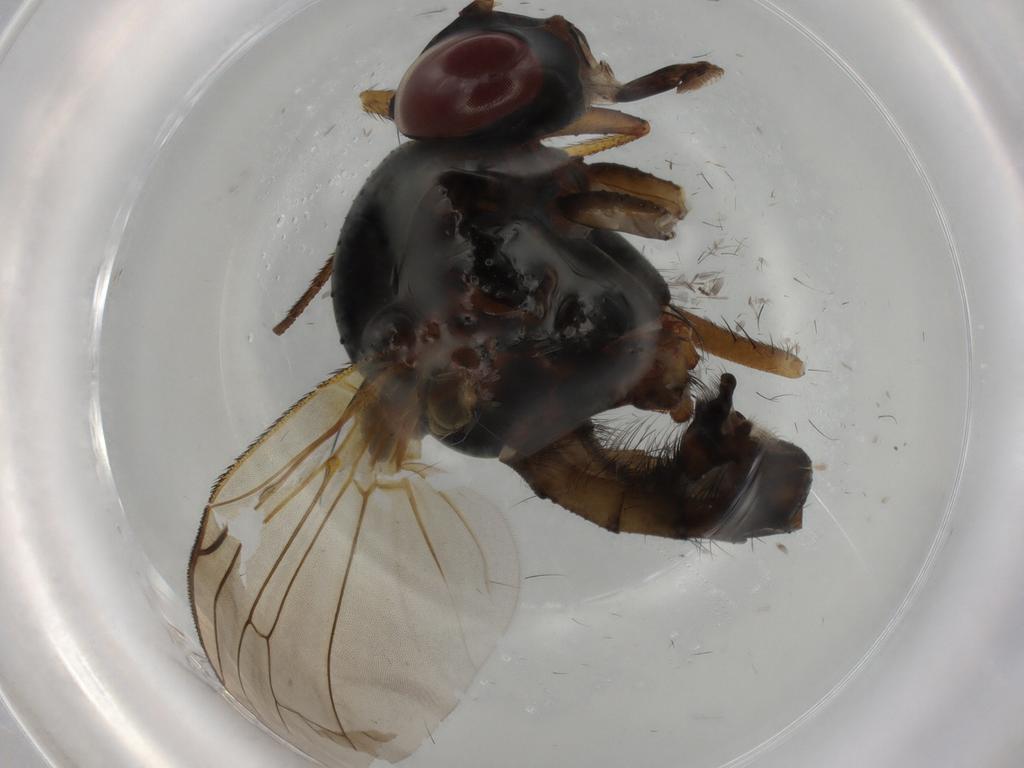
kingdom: Animalia
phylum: Arthropoda
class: Insecta
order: Diptera
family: Anthomyiidae
